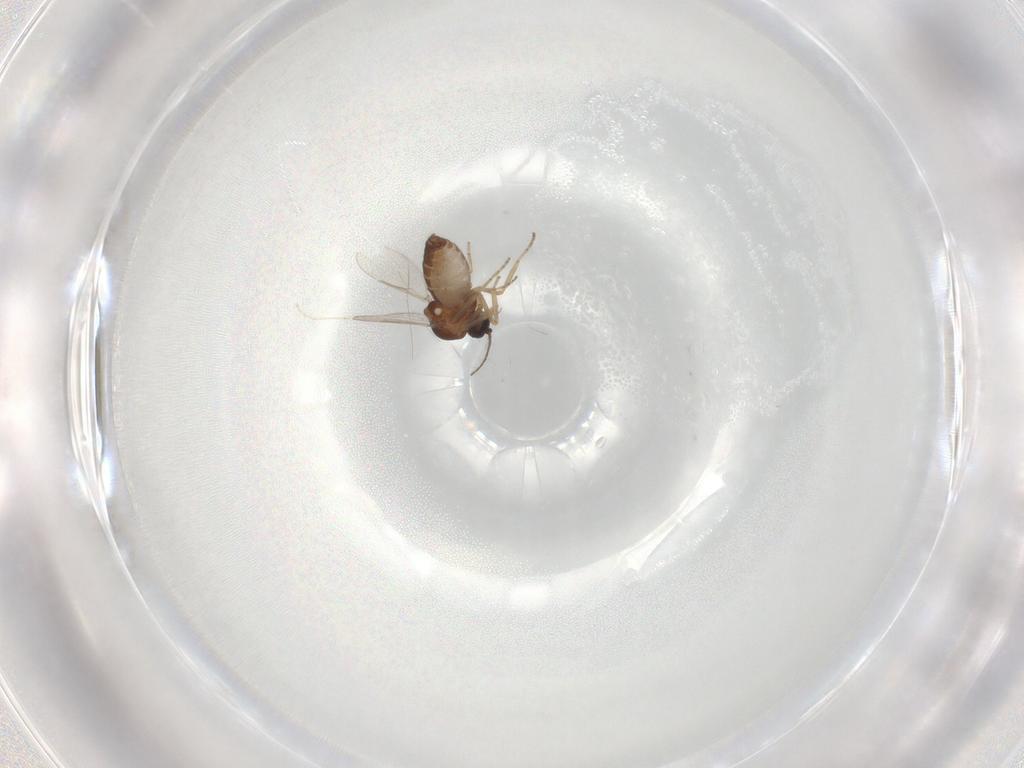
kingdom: Animalia
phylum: Arthropoda
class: Insecta
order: Diptera
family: Ceratopogonidae
